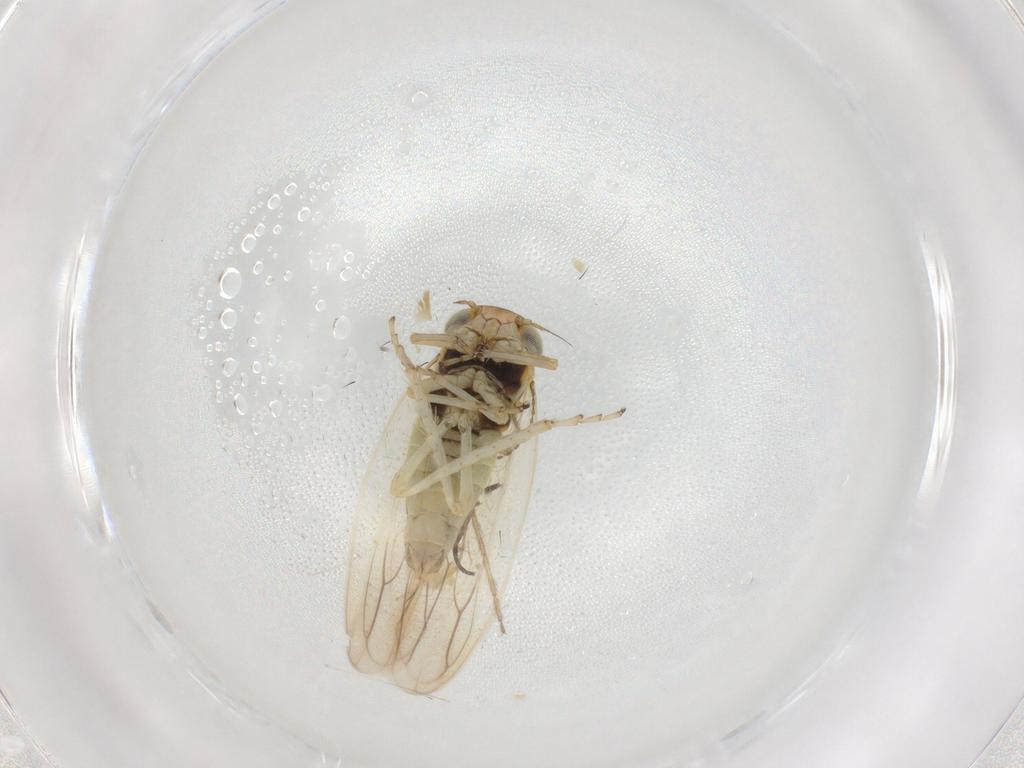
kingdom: Animalia
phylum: Arthropoda
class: Insecta
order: Hemiptera
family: Cicadellidae
